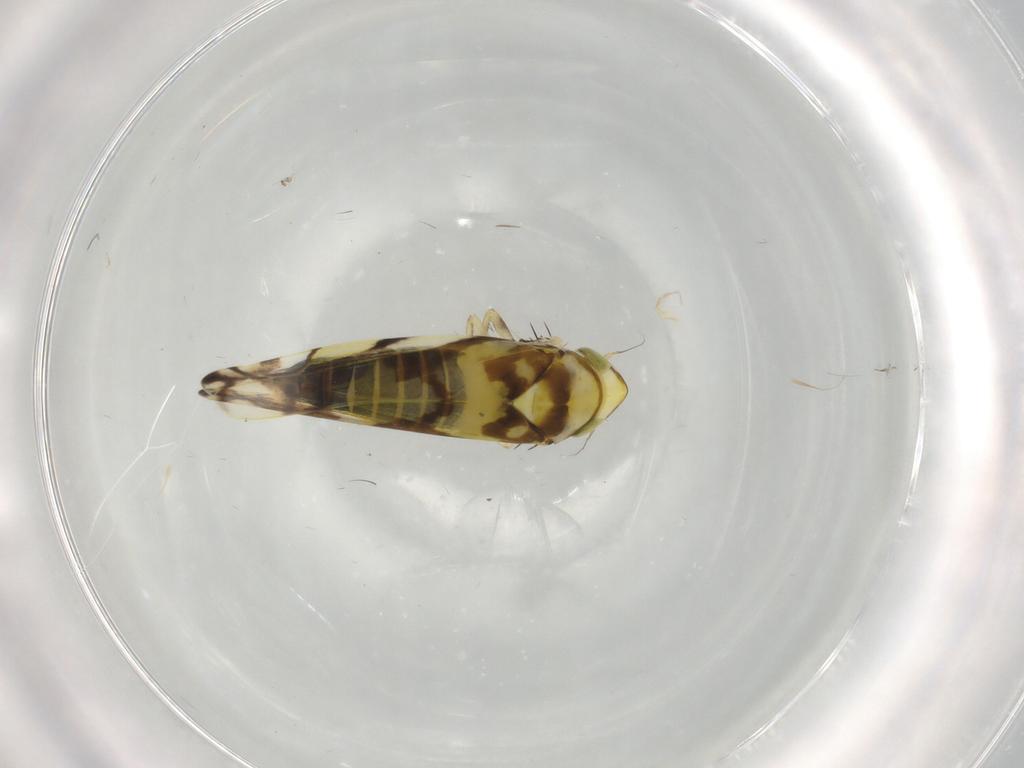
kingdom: Animalia
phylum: Arthropoda
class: Insecta
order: Hemiptera
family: Cicadellidae
